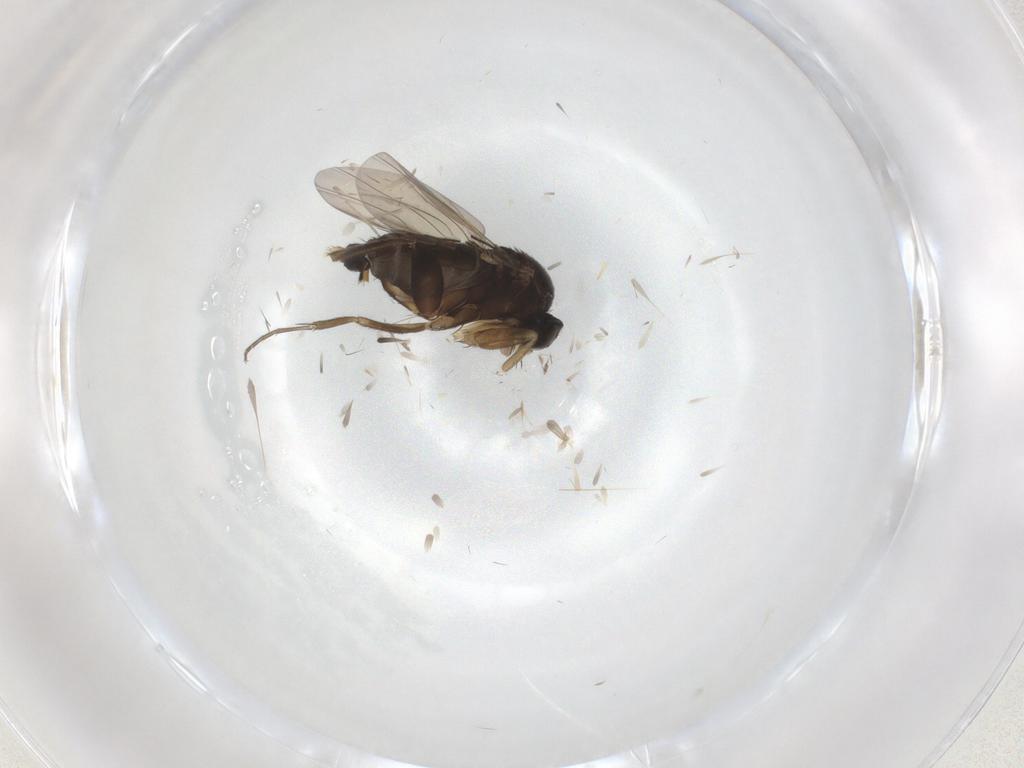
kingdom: Animalia
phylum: Arthropoda
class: Insecta
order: Diptera
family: Phoridae
